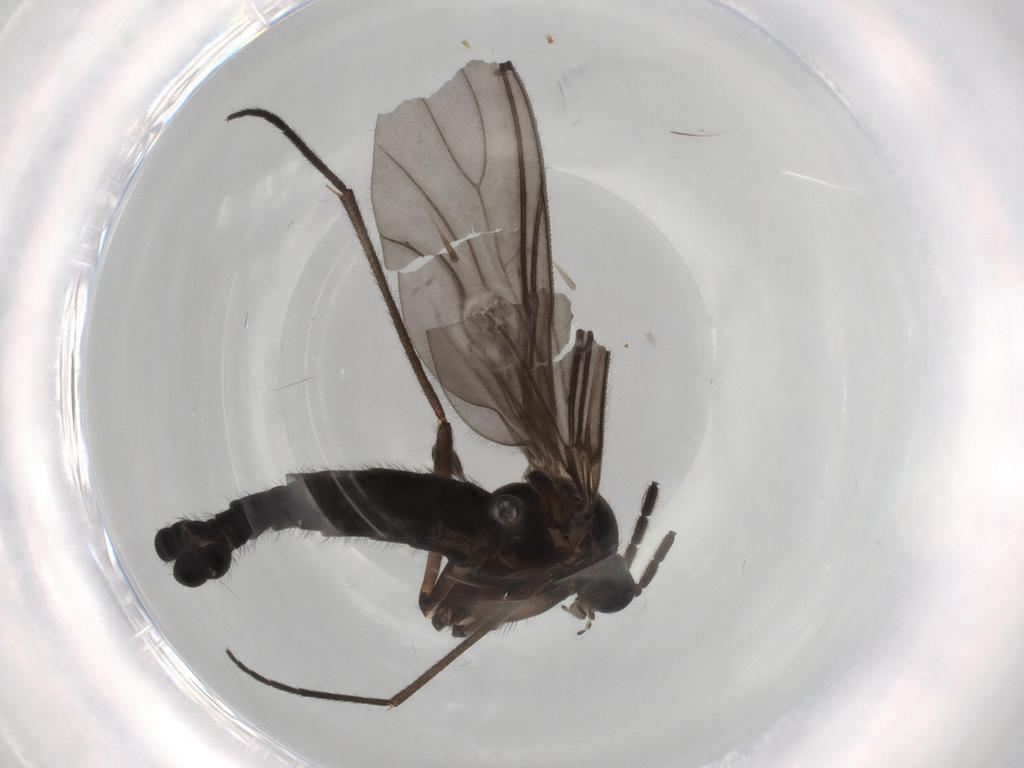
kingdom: Animalia
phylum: Arthropoda
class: Insecta
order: Diptera
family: Sciaridae
